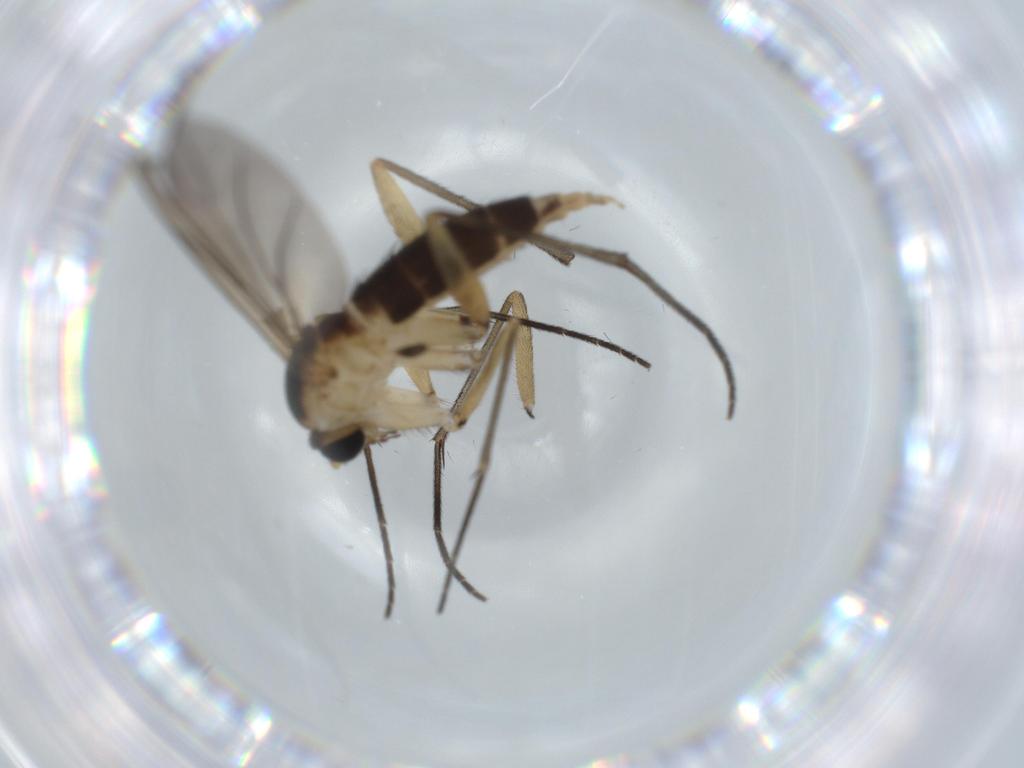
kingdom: Animalia
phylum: Arthropoda
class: Insecta
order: Diptera
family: Sciaridae
